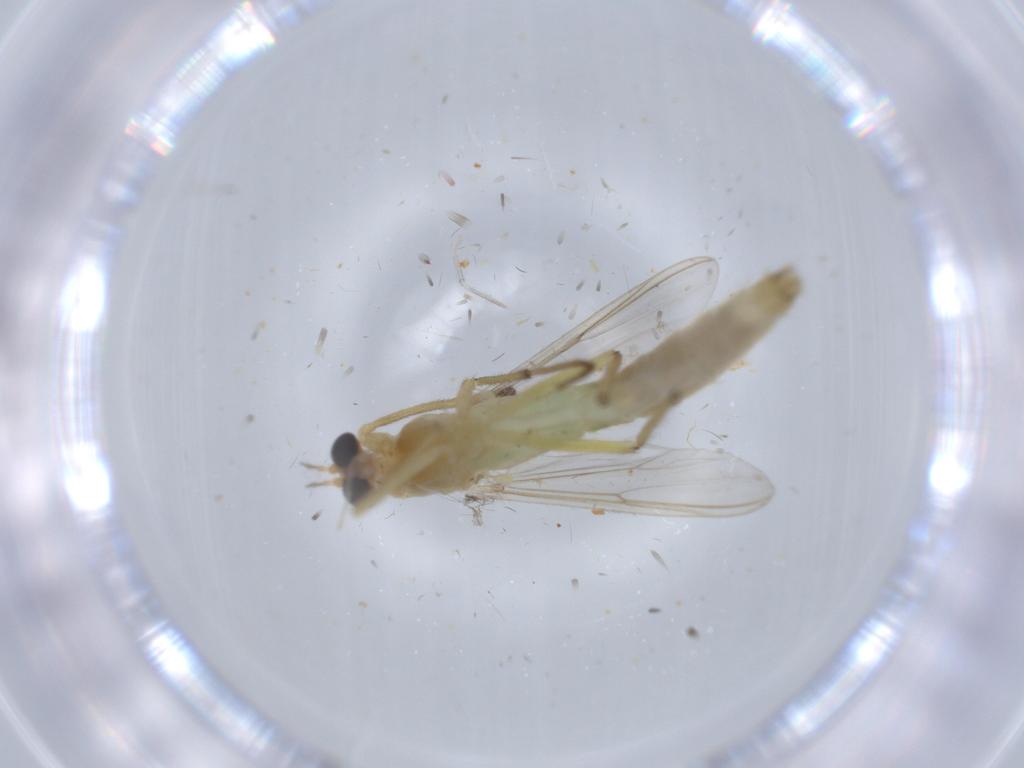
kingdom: Animalia
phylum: Arthropoda
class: Insecta
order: Diptera
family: Chironomidae
